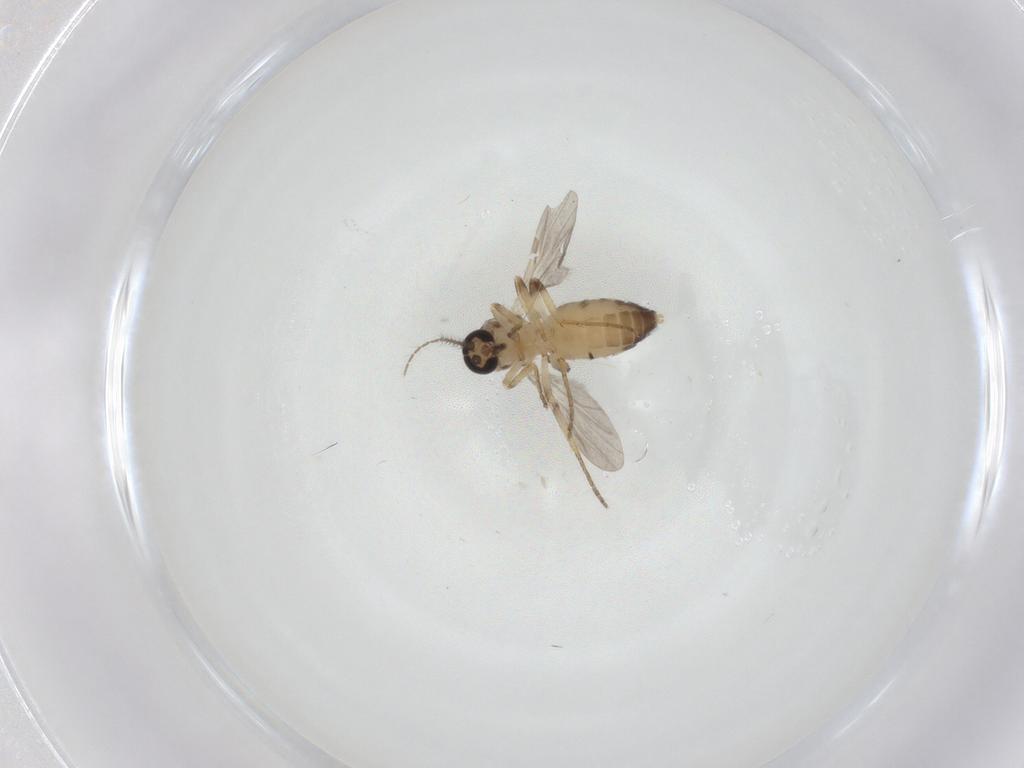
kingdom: Animalia
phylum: Arthropoda
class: Insecta
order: Diptera
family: Ceratopogonidae
